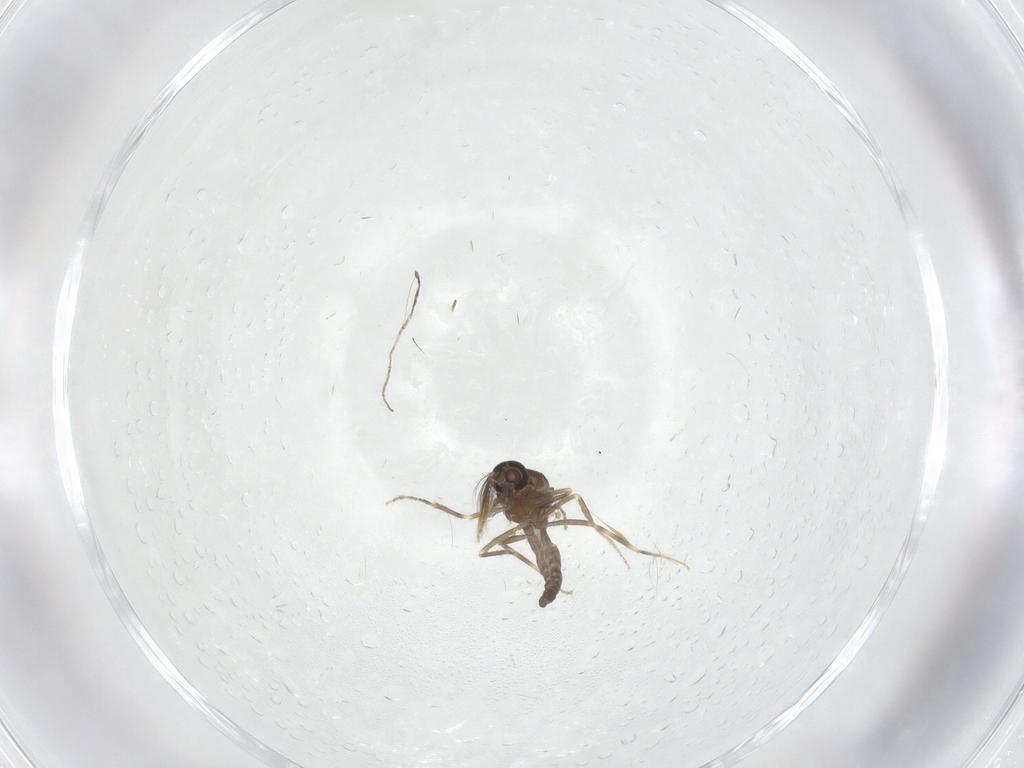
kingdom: Animalia
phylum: Arthropoda
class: Insecta
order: Diptera
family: Ceratopogonidae
